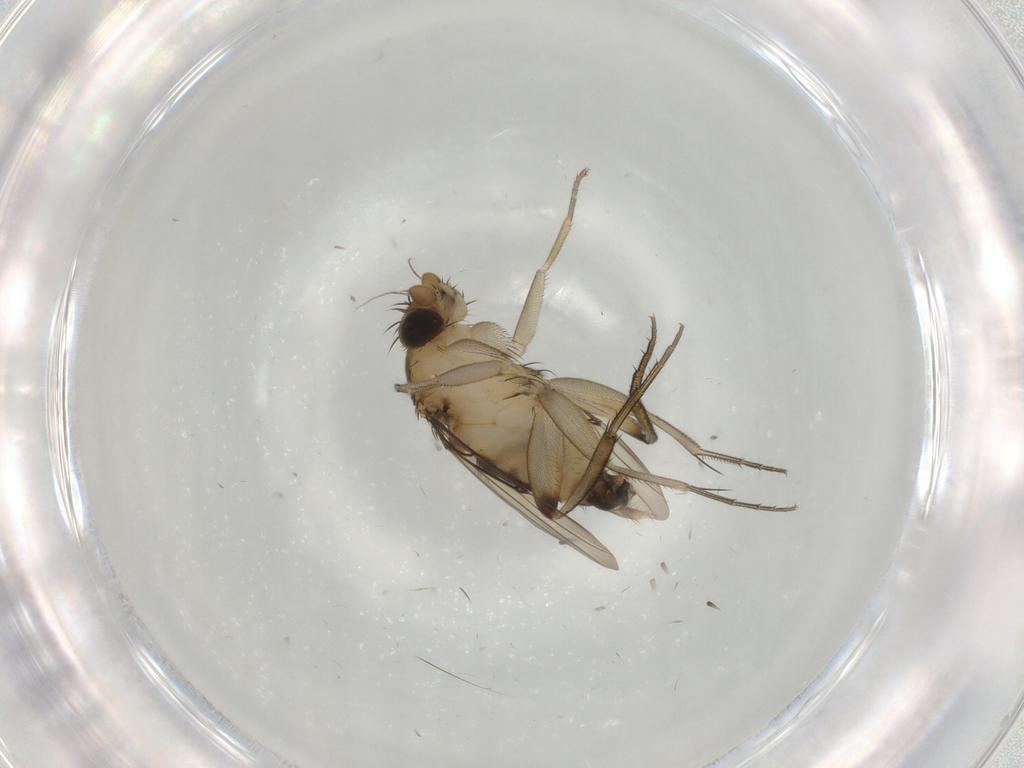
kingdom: Animalia
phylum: Arthropoda
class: Insecta
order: Diptera
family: Phoridae
